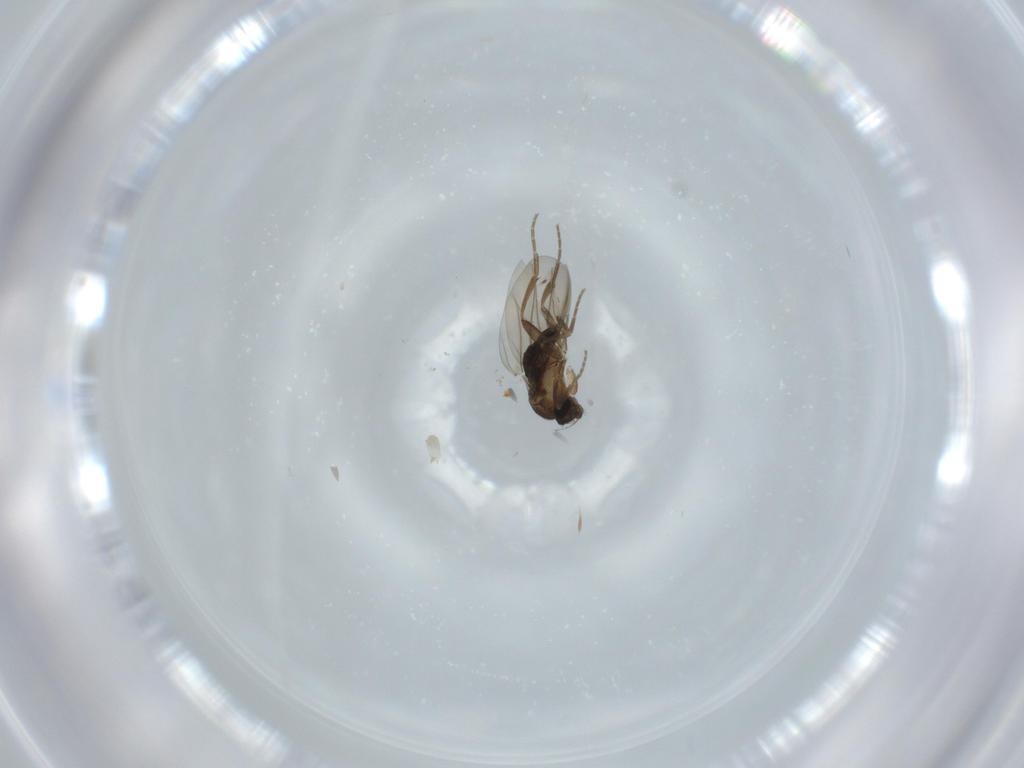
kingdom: Animalia
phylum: Arthropoda
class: Insecta
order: Diptera
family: Phoridae
